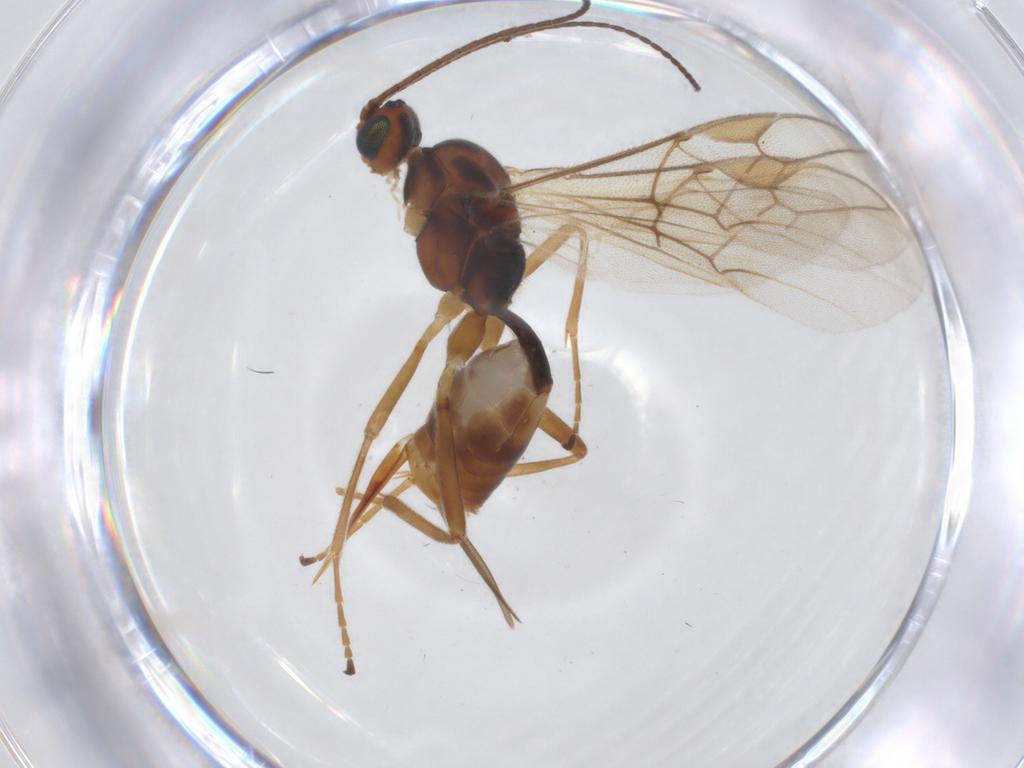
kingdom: Animalia
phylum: Arthropoda
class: Insecta
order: Hymenoptera
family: Braconidae
